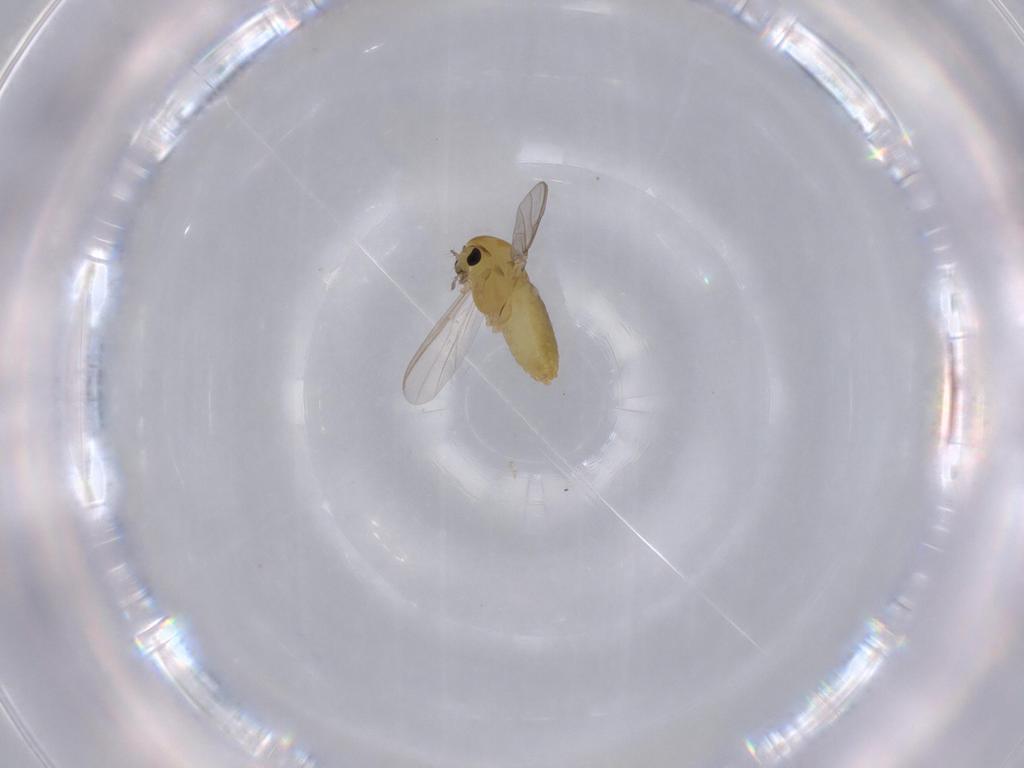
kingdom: Animalia
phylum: Arthropoda
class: Insecta
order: Diptera
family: Chironomidae
